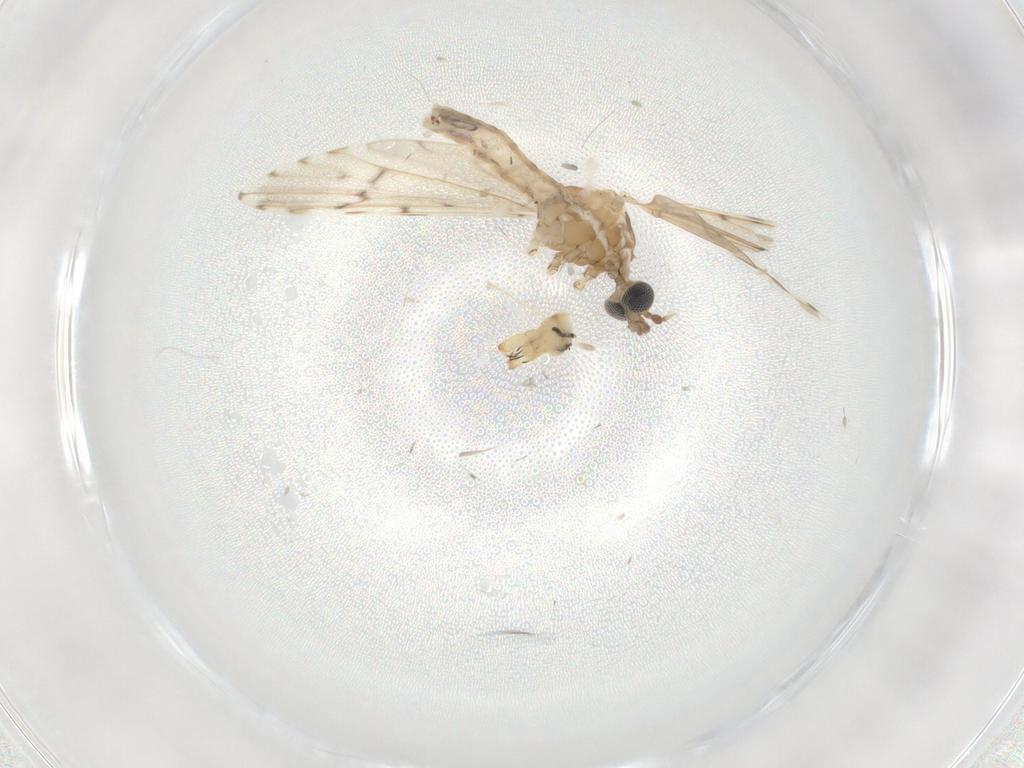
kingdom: Animalia
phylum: Arthropoda
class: Insecta
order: Diptera
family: Limoniidae
